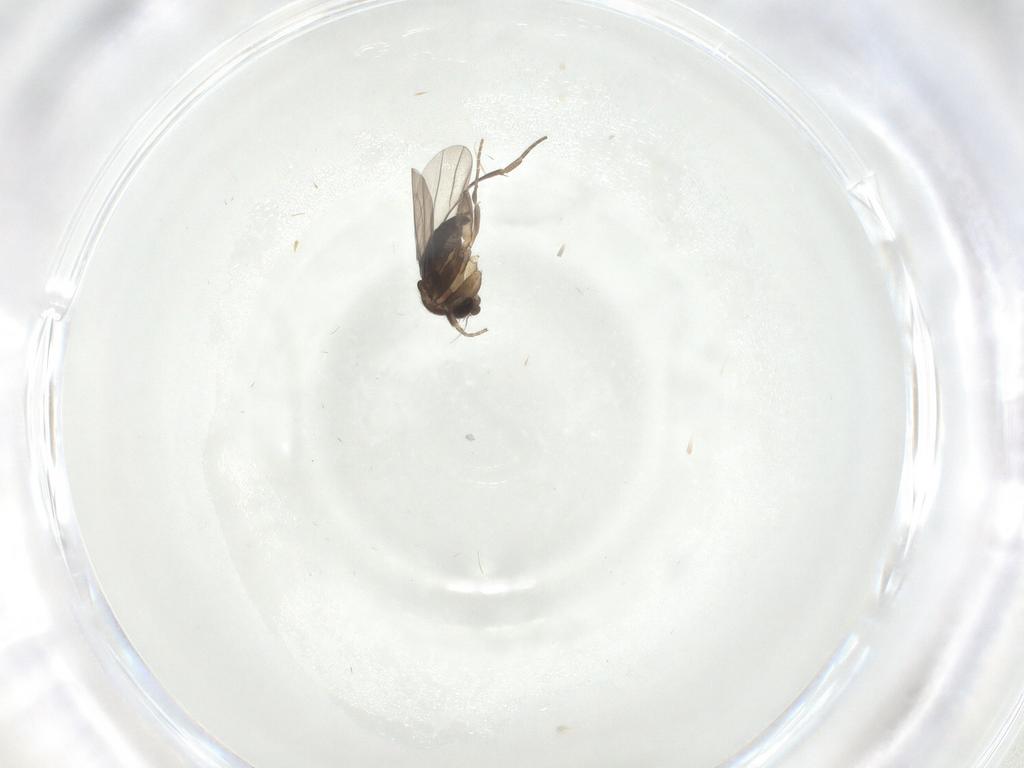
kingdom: Animalia
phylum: Arthropoda
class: Insecta
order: Diptera
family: Phoridae
